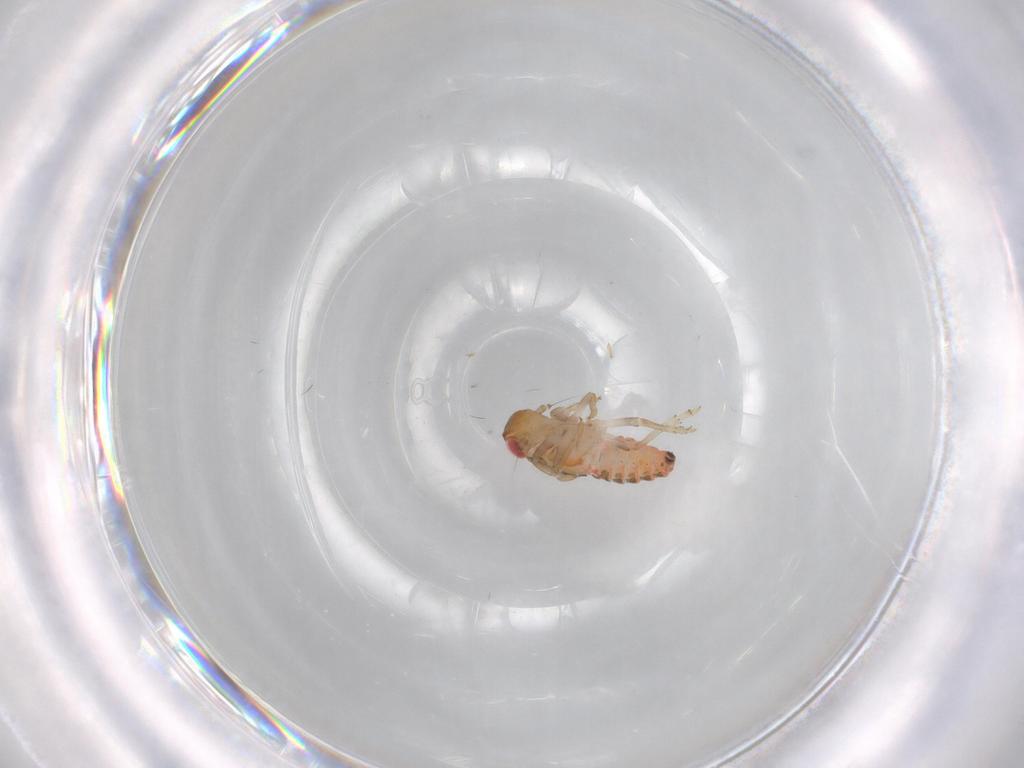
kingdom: Animalia
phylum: Arthropoda
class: Insecta
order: Hemiptera
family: Issidae
